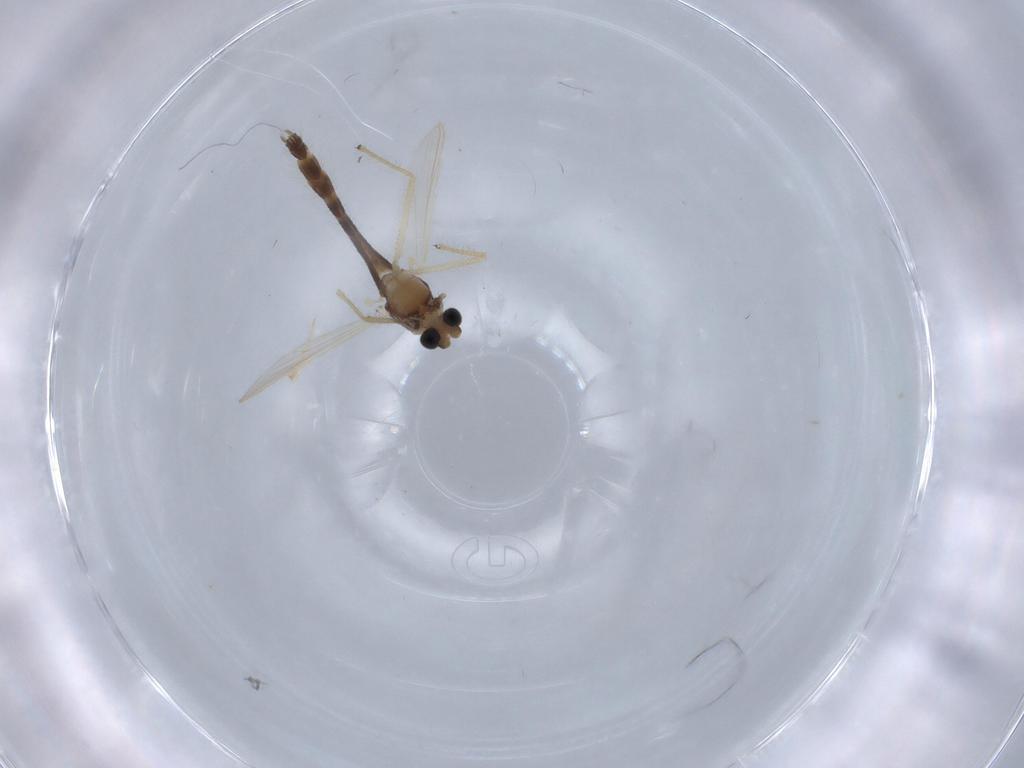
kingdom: Animalia
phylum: Arthropoda
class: Insecta
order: Diptera
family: Chironomidae
